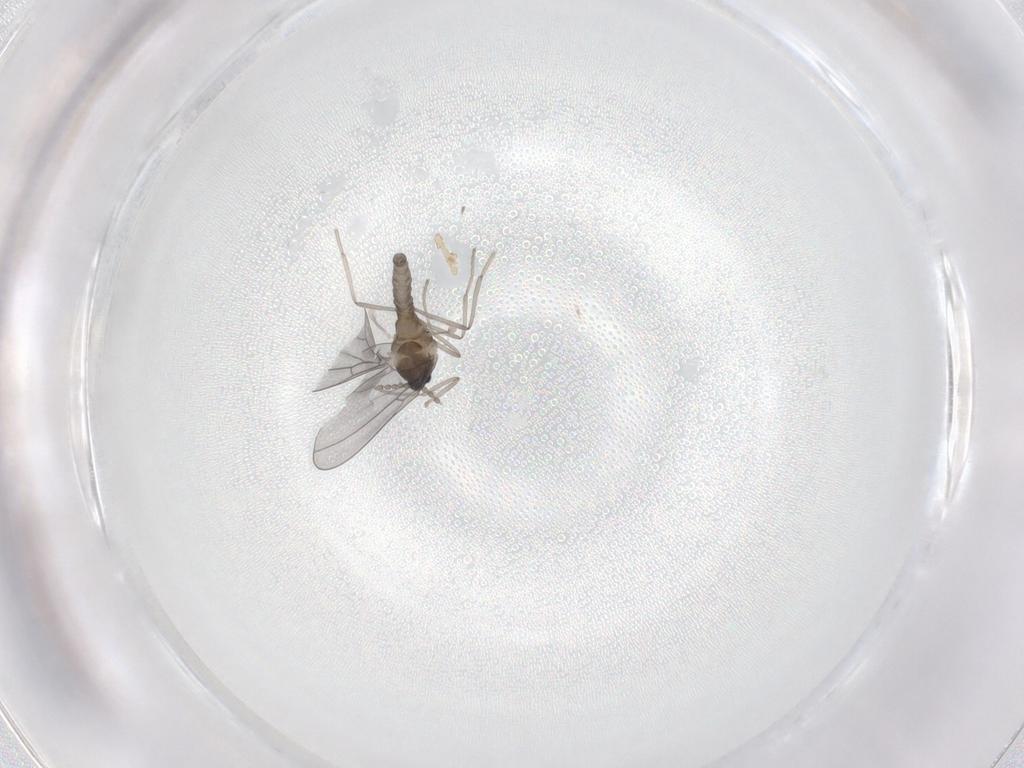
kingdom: Animalia
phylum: Arthropoda
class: Insecta
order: Diptera
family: Cecidomyiidae
